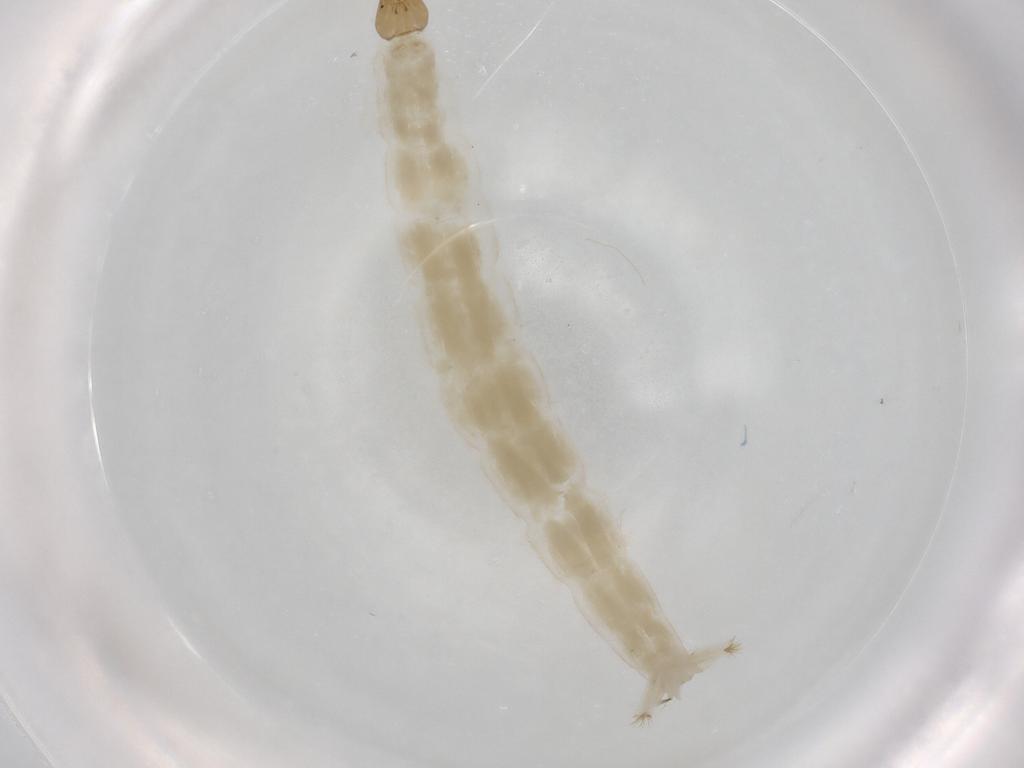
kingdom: Animalia
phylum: Arthropoda
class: Insecta
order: Diptera
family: Chironomidae
